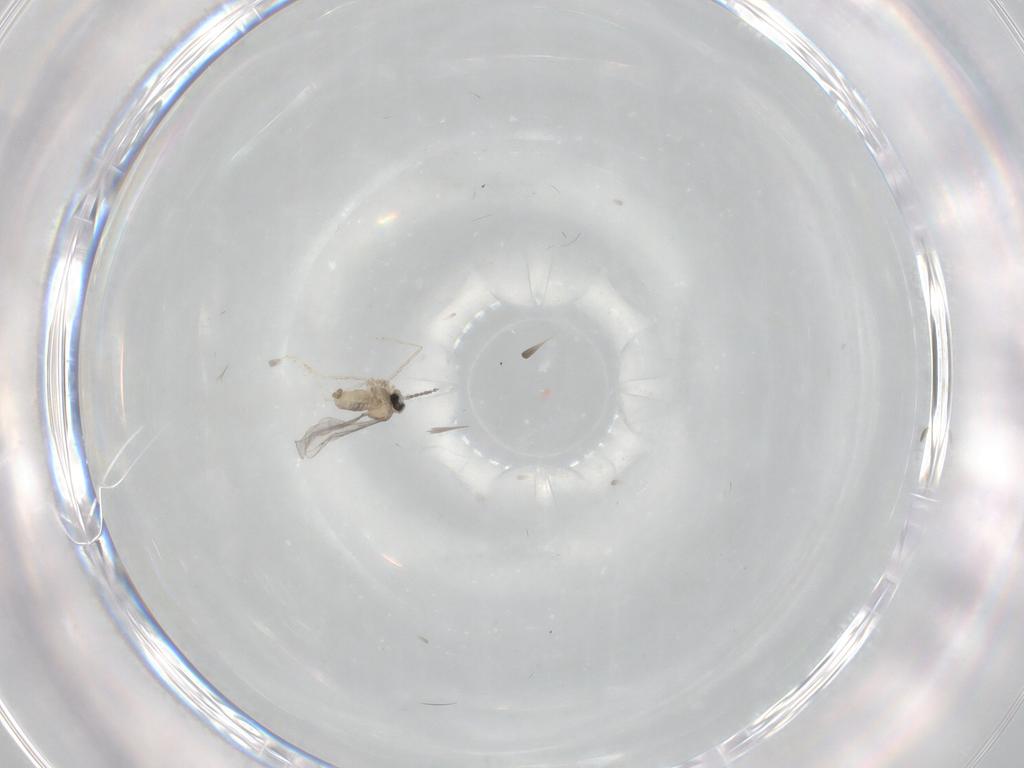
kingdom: Animalia
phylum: Arthropoda
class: Insecta
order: Diptera
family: Cecidomyiidae
